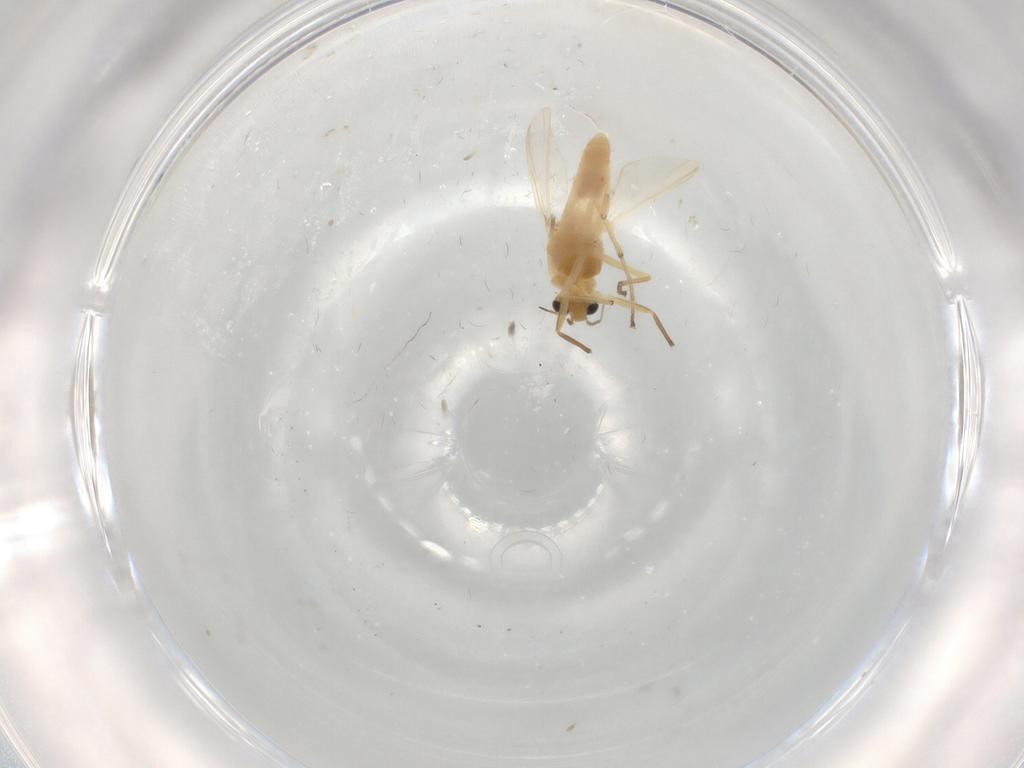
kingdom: Animalia
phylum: Arthropoda
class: Insecta
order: Diptera
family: Chironomidae
